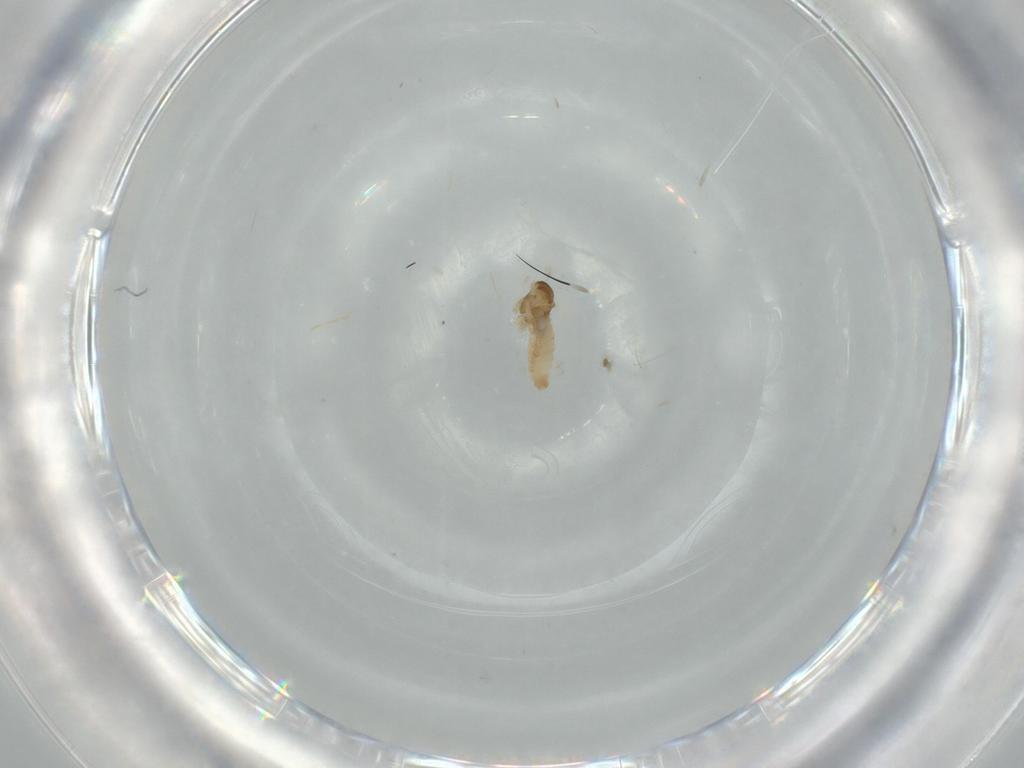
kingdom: Animalia
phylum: Arthropoda
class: Insecta
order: Diptera
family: Cecidomyiidae
